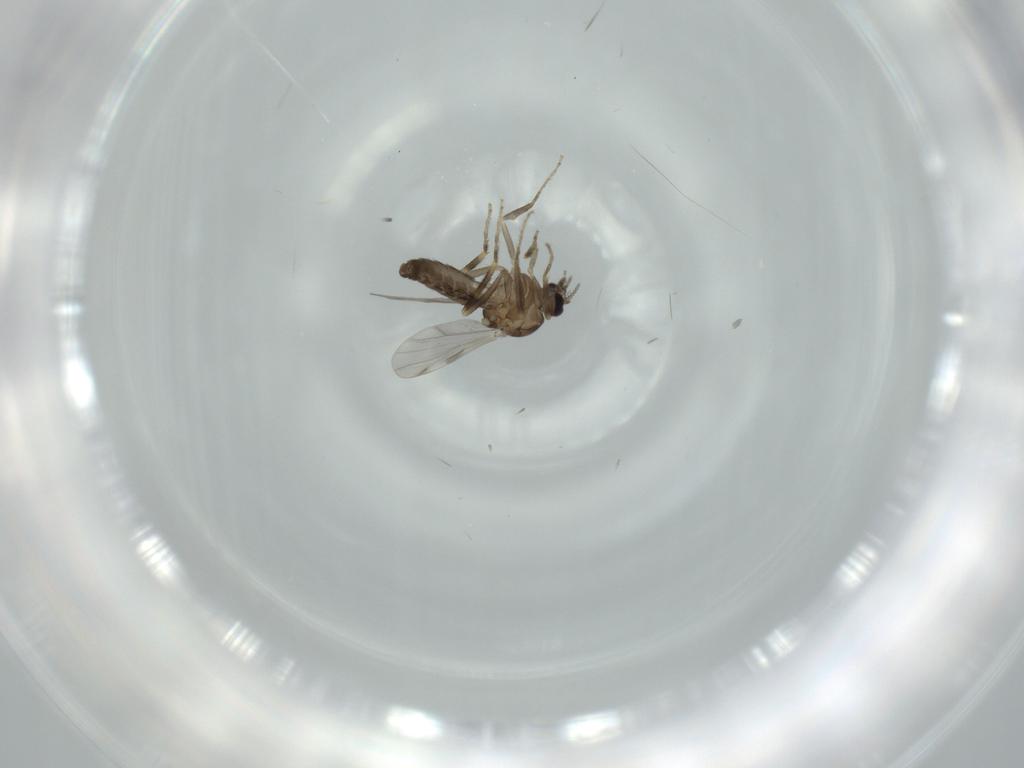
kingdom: Animalia
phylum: Arthropoda
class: Insecta
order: Diptera
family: Ceratopogonidae
